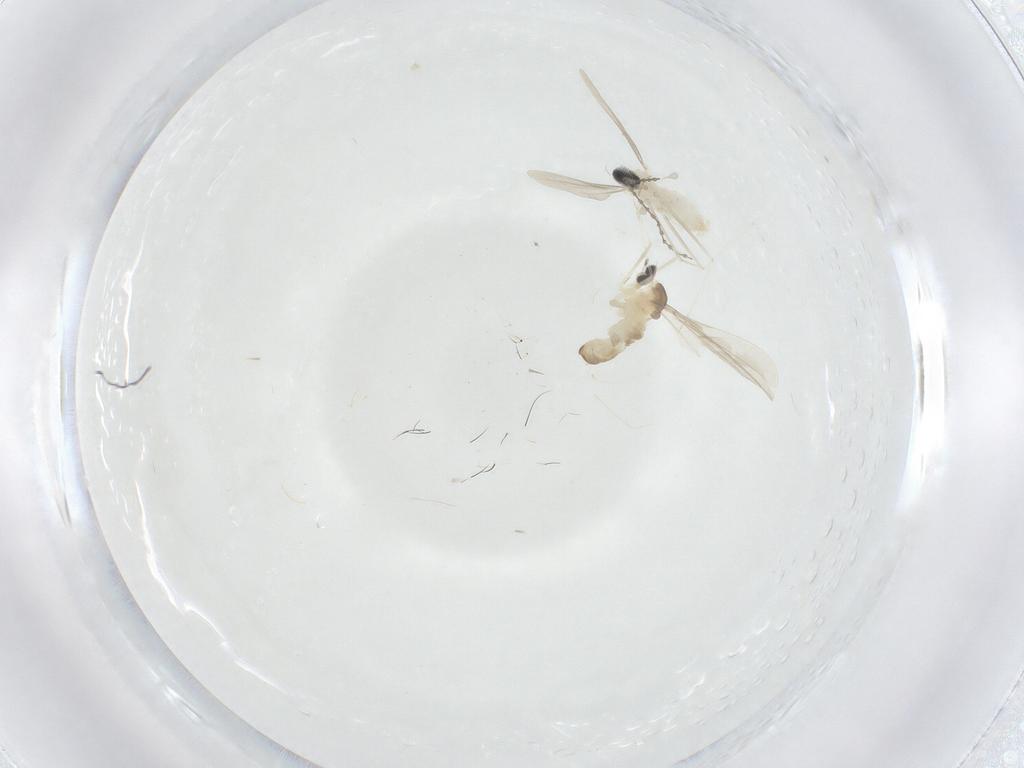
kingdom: Animalia
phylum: Arthropoda
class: Insecta
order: Diptera
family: Cecidomyiidae
